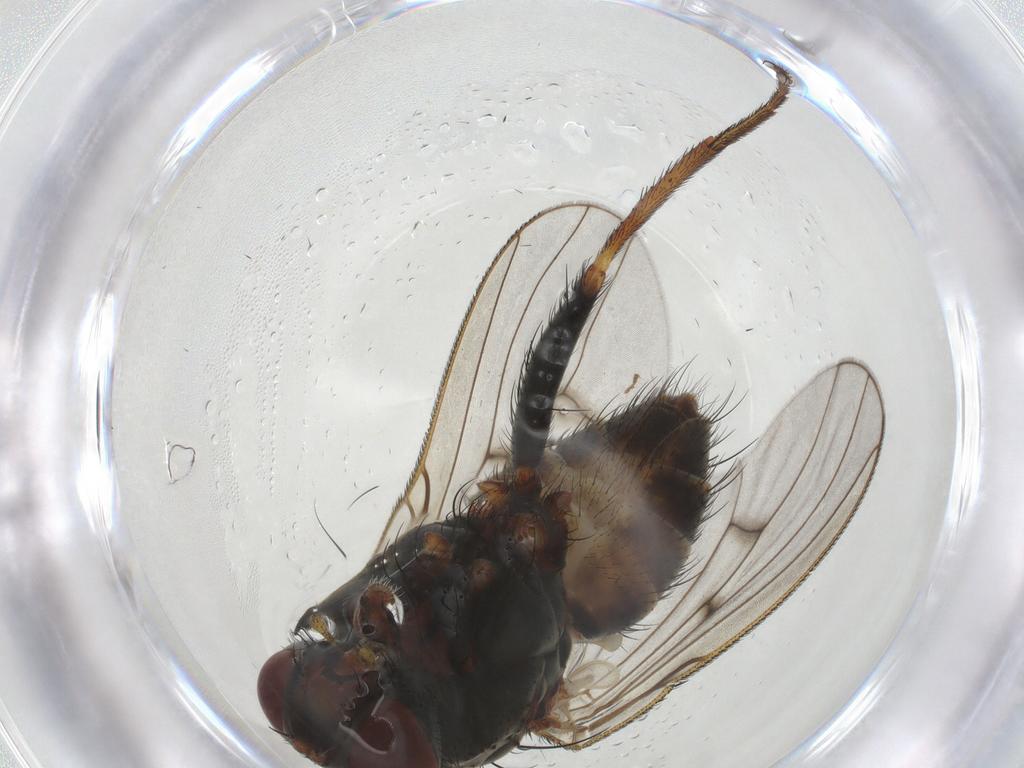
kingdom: Animalia
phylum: Arthropoda
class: Insecta
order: Diptera
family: Muscidae
